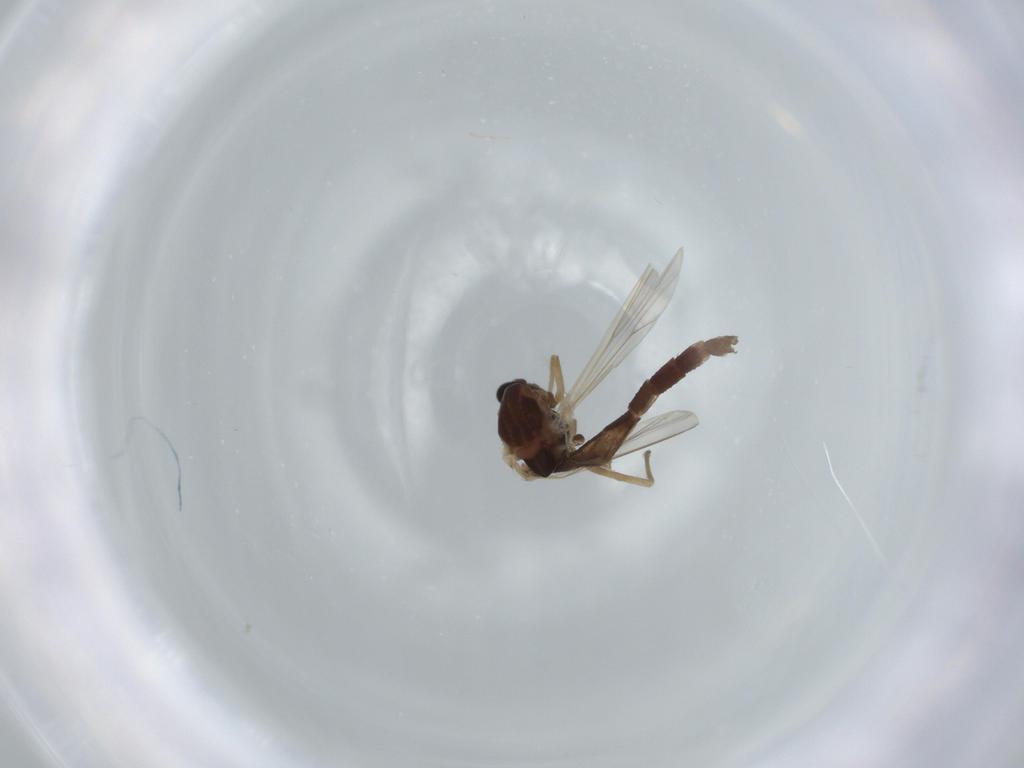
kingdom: Animalia
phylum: Arthropoda
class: Insecta
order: Diptera
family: Chironomidae
